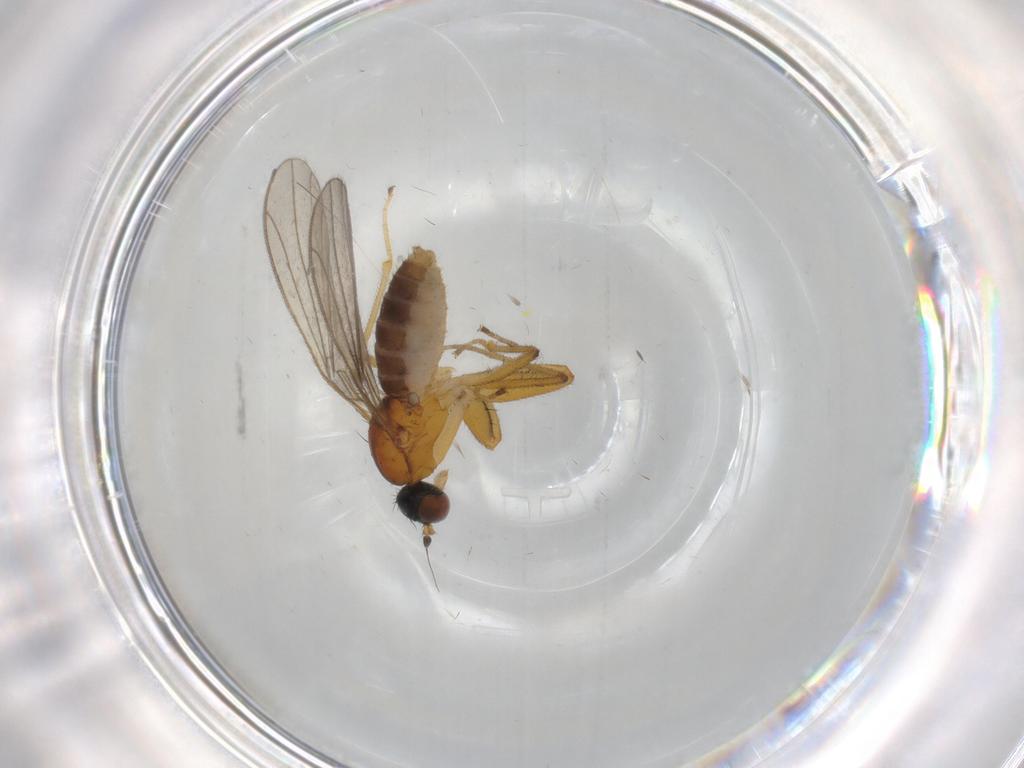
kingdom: Animalia
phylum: Arthropoda
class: Insecta
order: Diptera
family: Empididae
